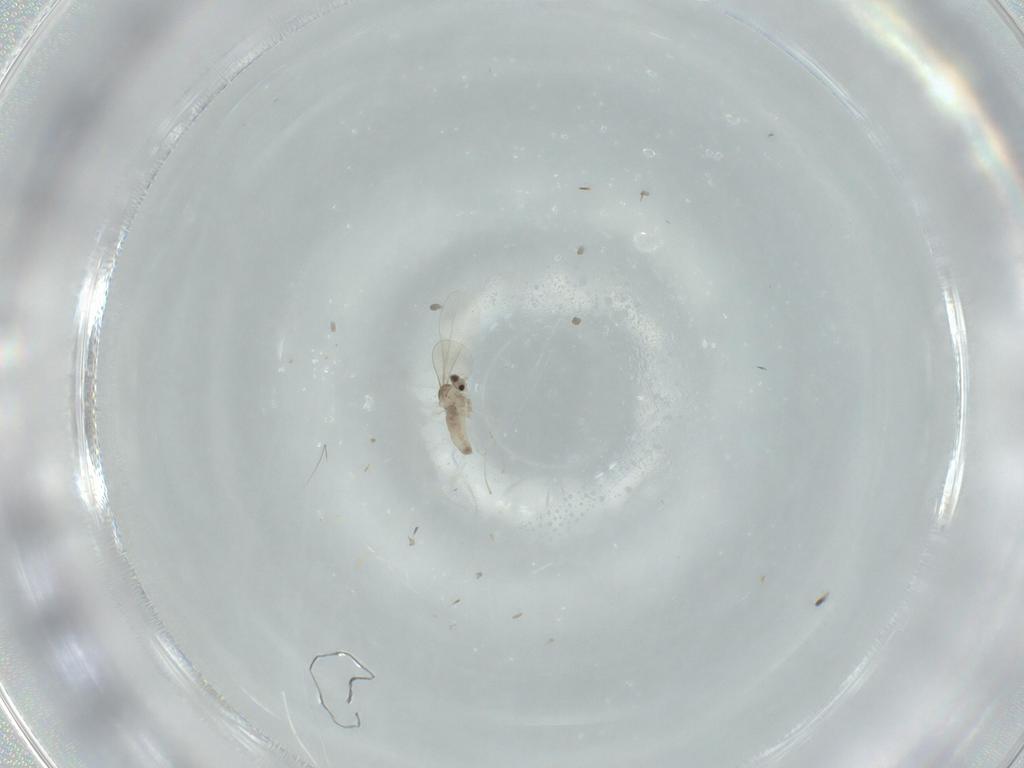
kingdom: Animalia
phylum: Arthropoda
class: Insecta
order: Diptera
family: Cecidomyiidae
